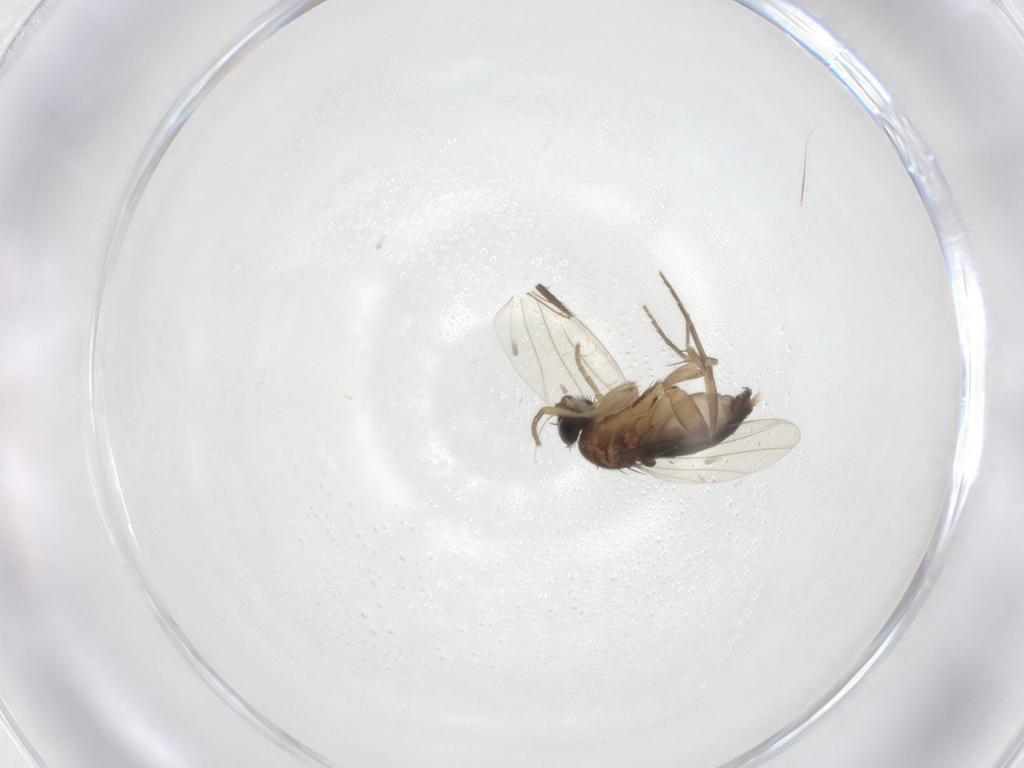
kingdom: Animalia
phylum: Arthropoda
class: Insecta
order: Diptera
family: Phoridae
